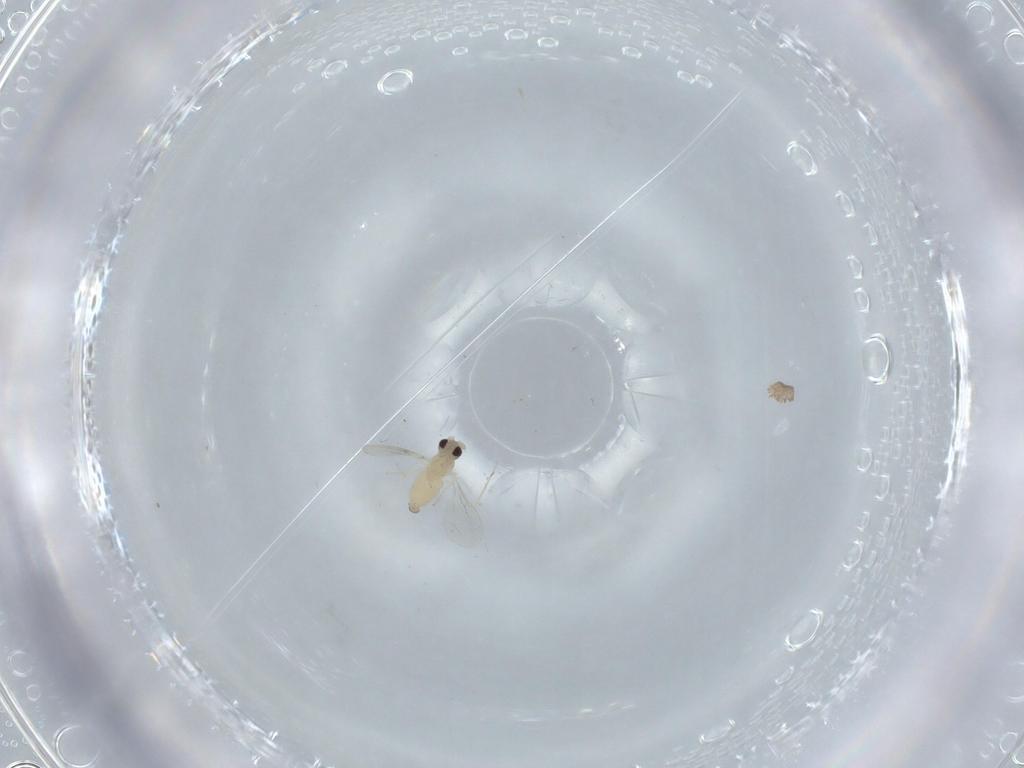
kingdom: Animalia
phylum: Arthropoda
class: Insecta
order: Diptera
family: Cecidomyiidae
